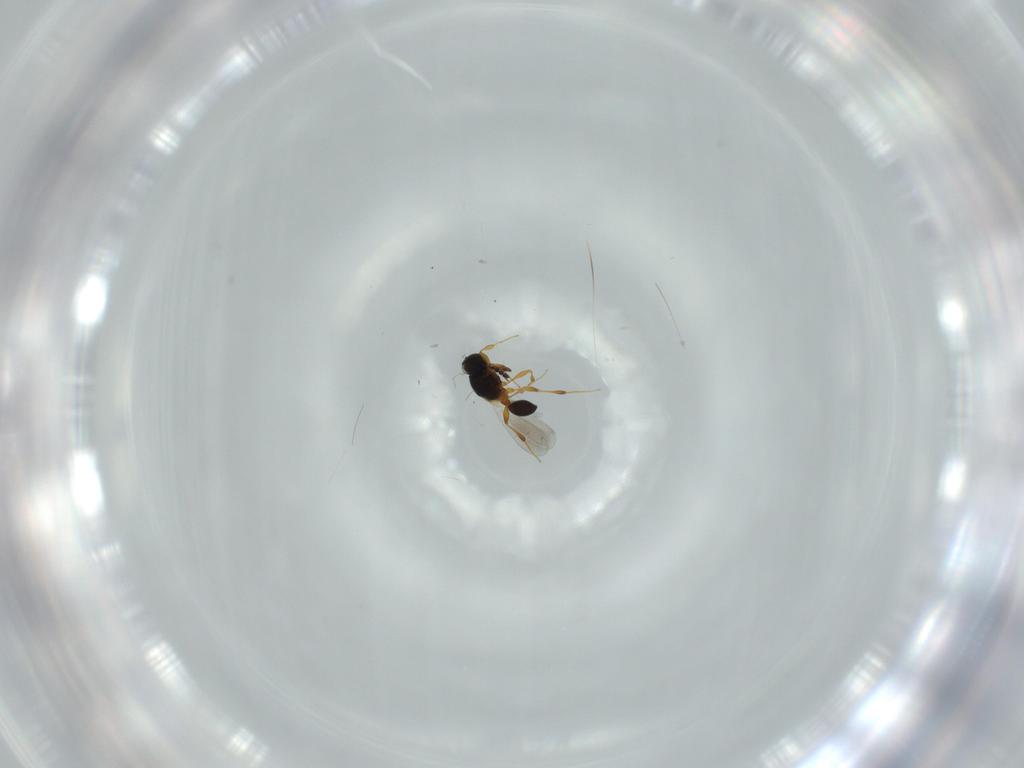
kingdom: Animalia
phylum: Arthropoda
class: Insecta
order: Hymenoptera
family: Platygastridae
